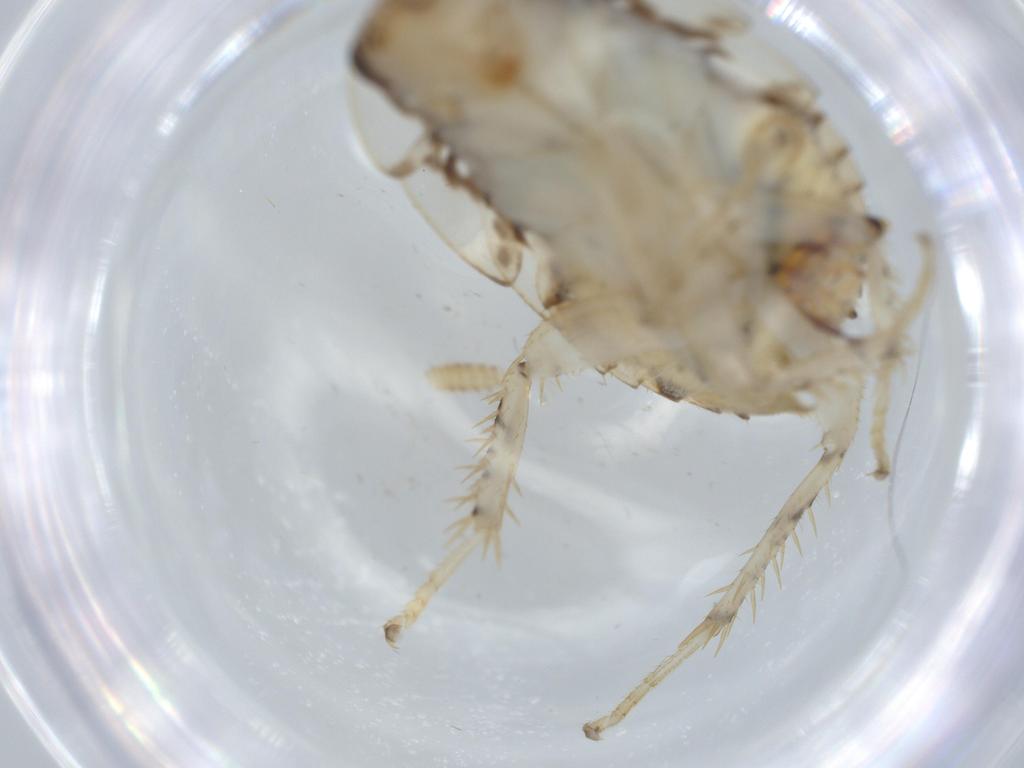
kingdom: Animalia
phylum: Arthropoda
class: Insecta
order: Blattodea
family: Ectobiidae
